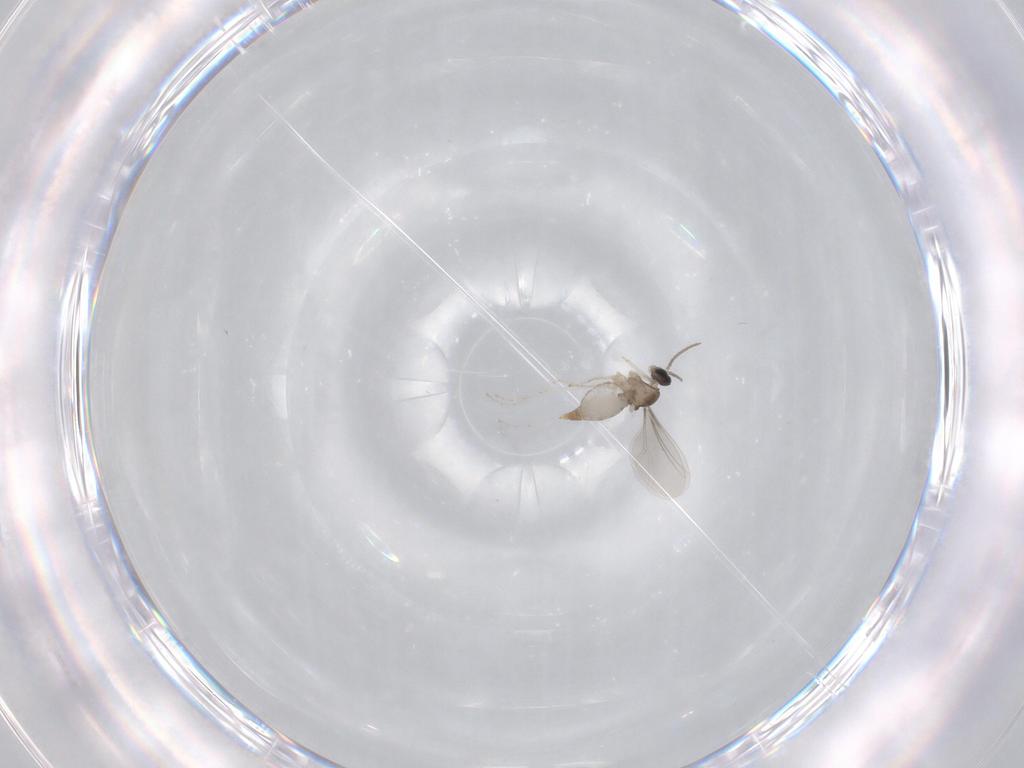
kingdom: Animalia
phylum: Arthropoda
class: Insecta
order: Diptera
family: Cecidomyiidae
